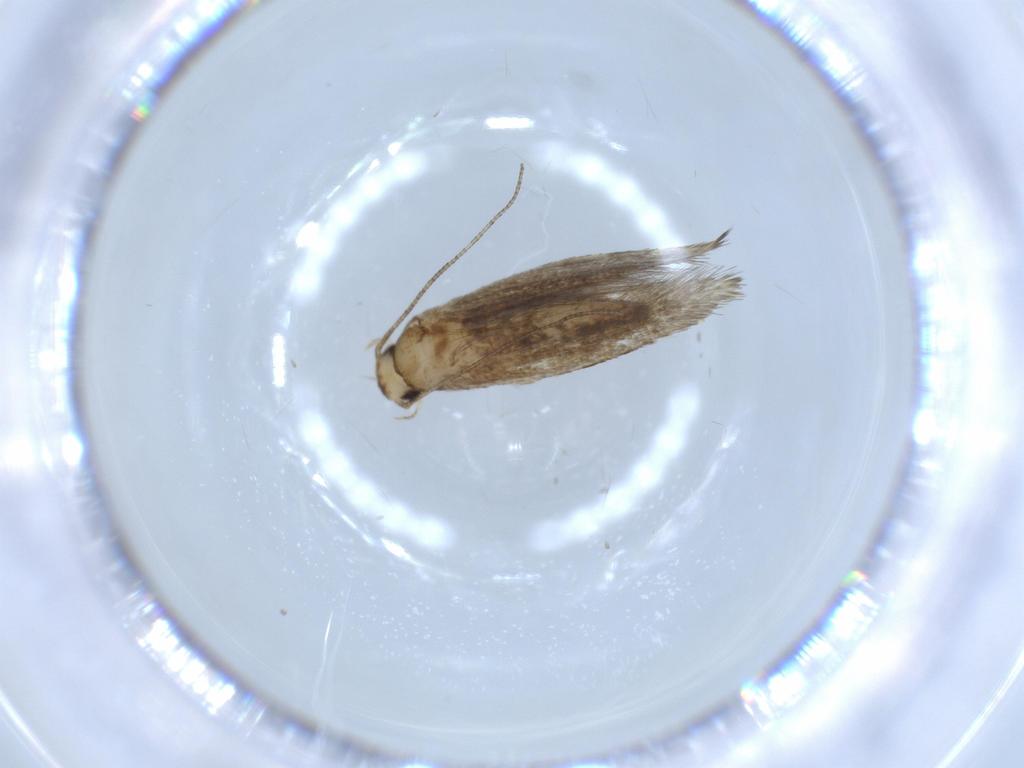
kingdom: Animalia
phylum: Arthropoda
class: Insecta
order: Lepidoptera
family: Tineidae
